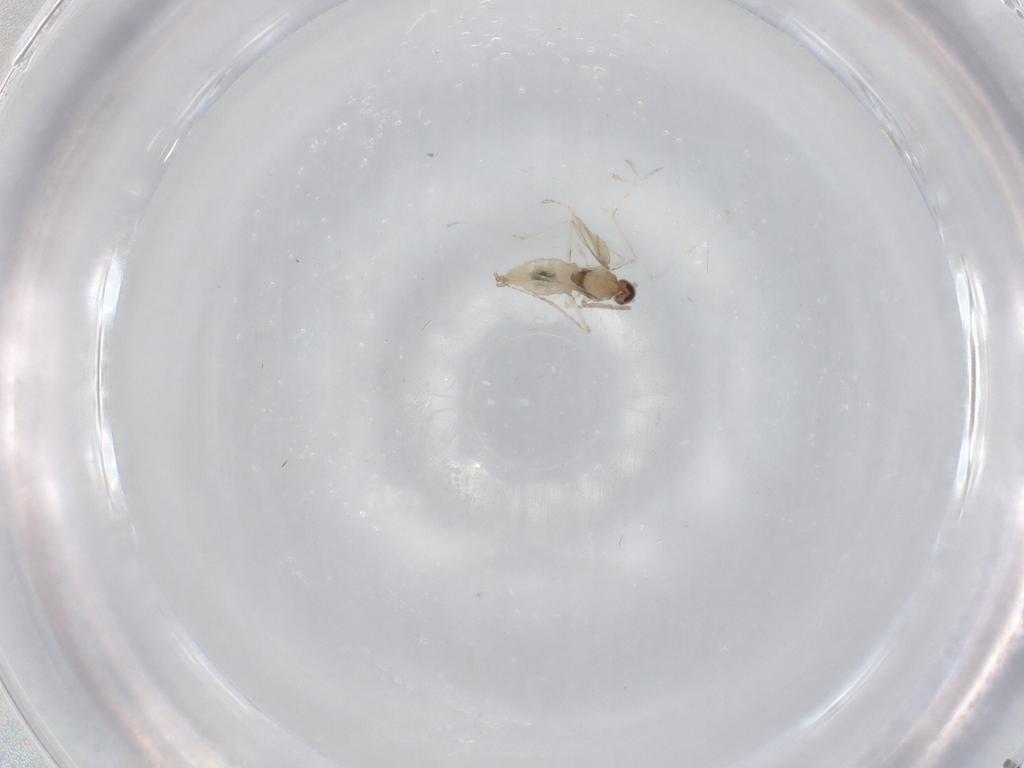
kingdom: Animalia
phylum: Arthropoda
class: Insecta
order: Diptera
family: Cecidomyiidae
